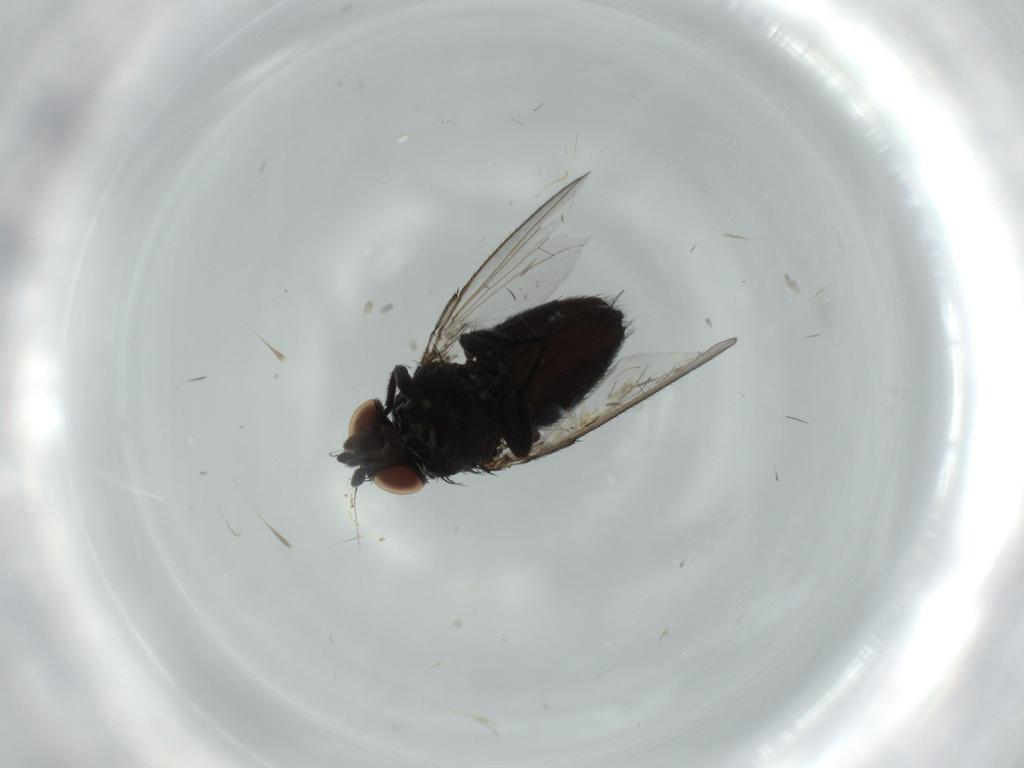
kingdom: Animalia
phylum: Arthropoda
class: Insecta
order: Diptera
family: Milichiidae
